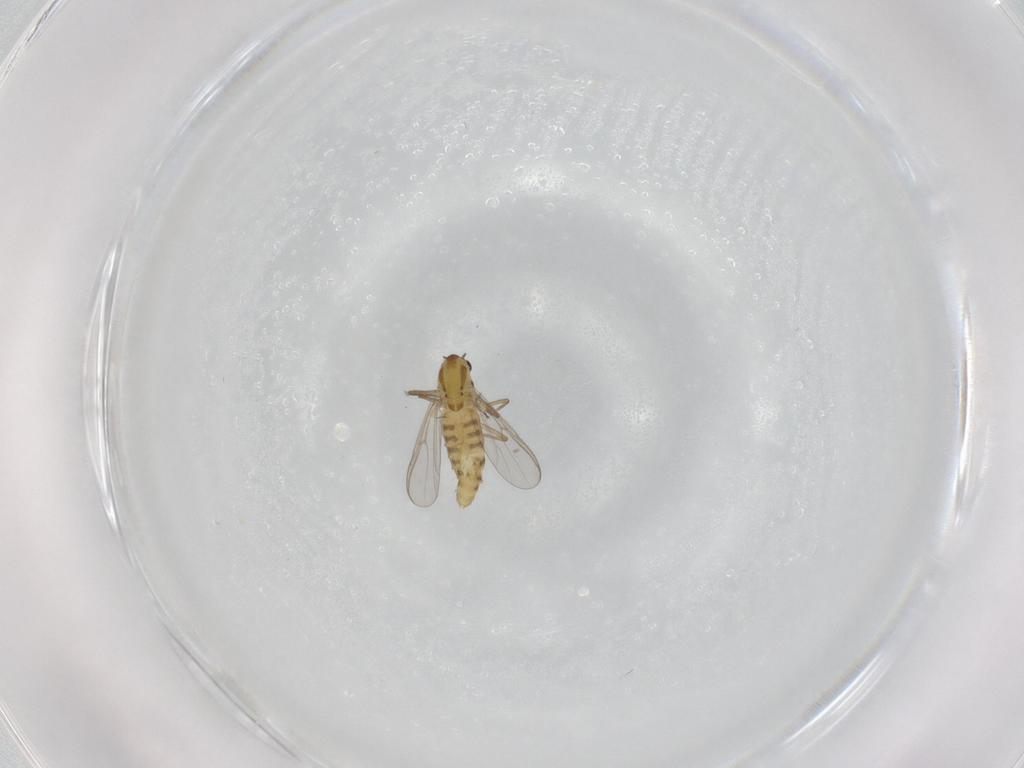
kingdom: Animalia
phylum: Arthropoda
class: Insecta
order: Diptera
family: Chironomidae
